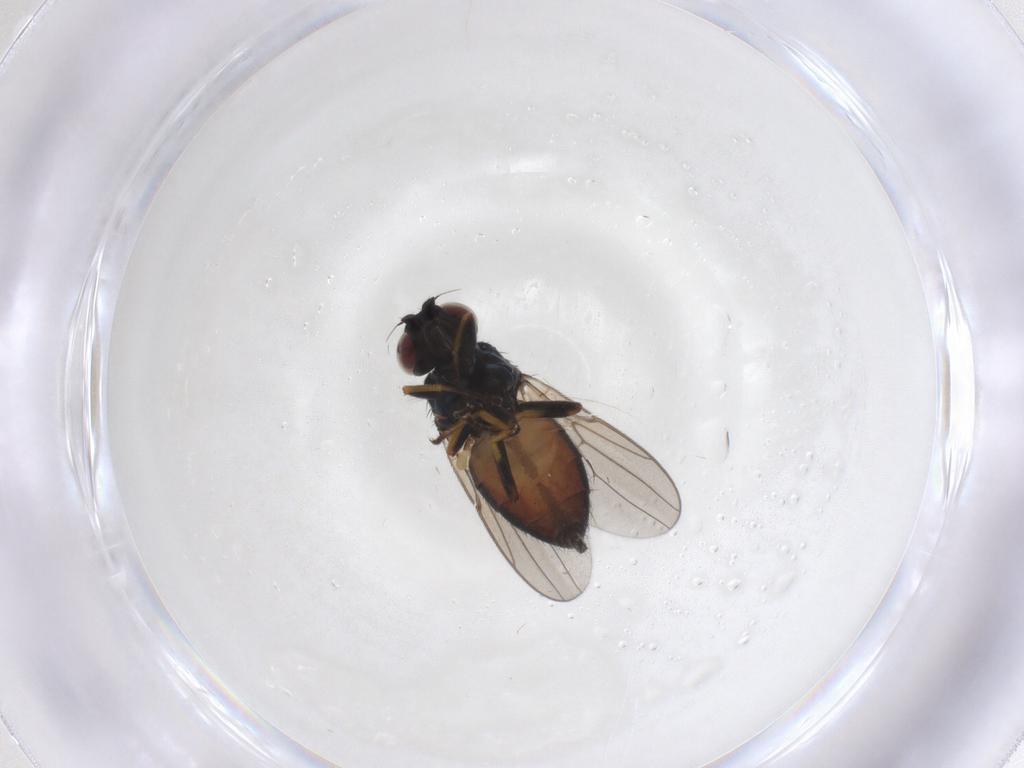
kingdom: Animalia
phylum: Arthropoda
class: Insecta
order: Diptera
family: Chloropidae
